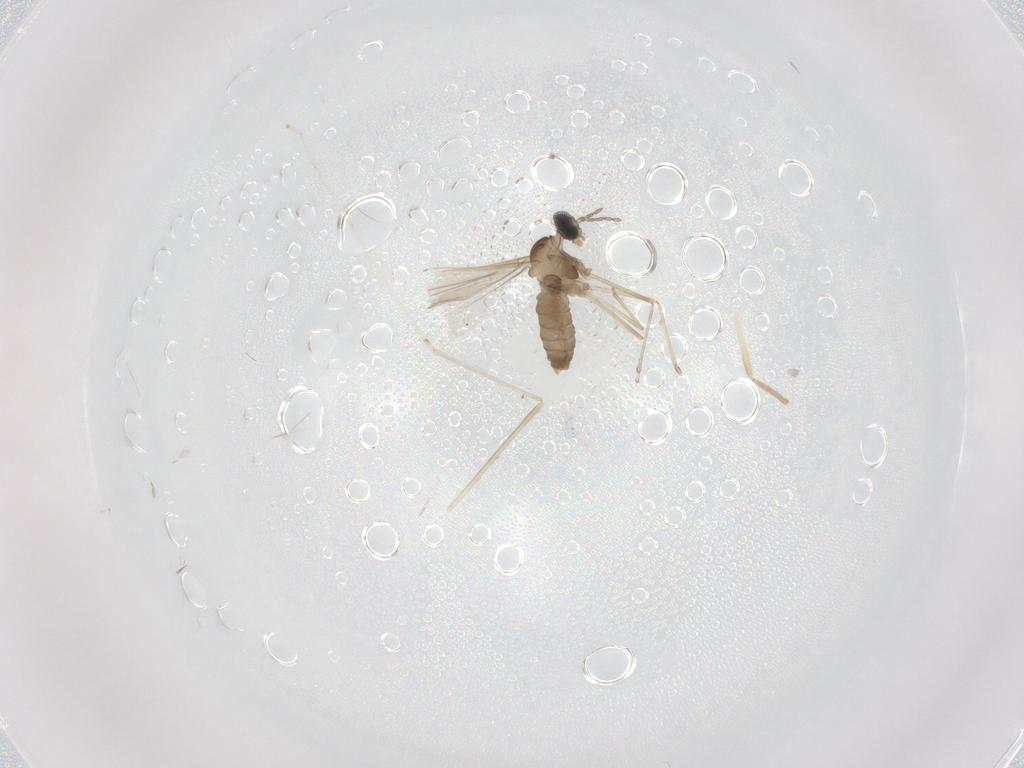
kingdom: Animalia
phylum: Arthropoda
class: Insecta
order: Diptera
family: Cecidomyiidae
